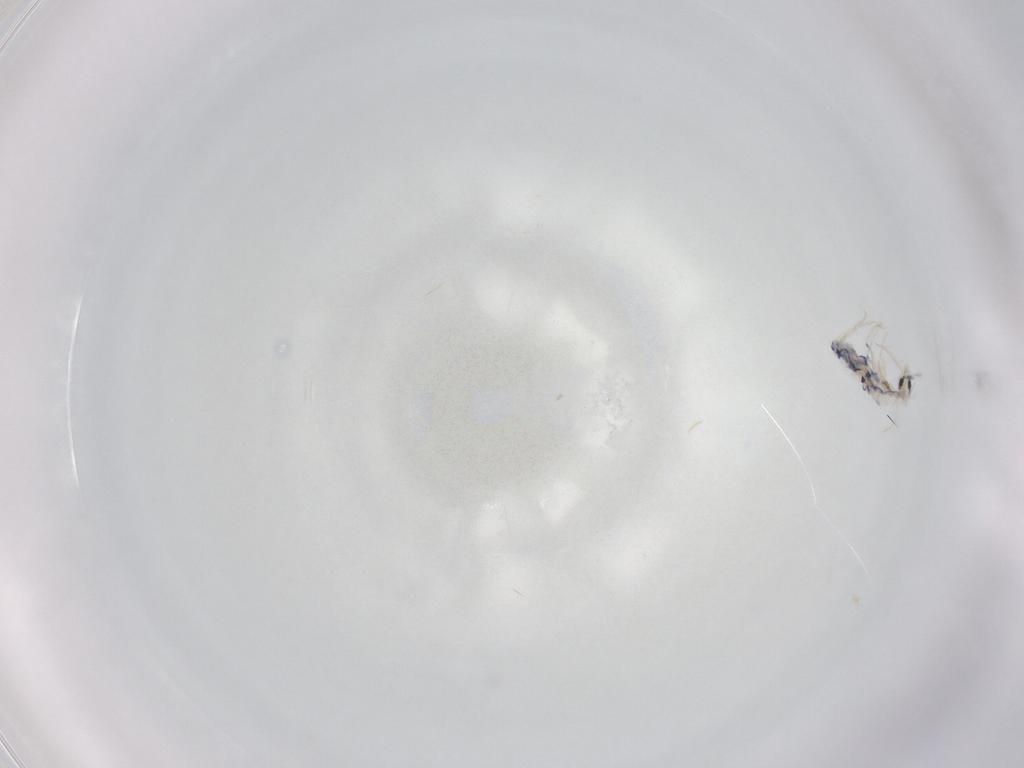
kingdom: Animalia
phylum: Arthropoda
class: Collembola
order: Entomobryomorpha
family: Entomobryidae
